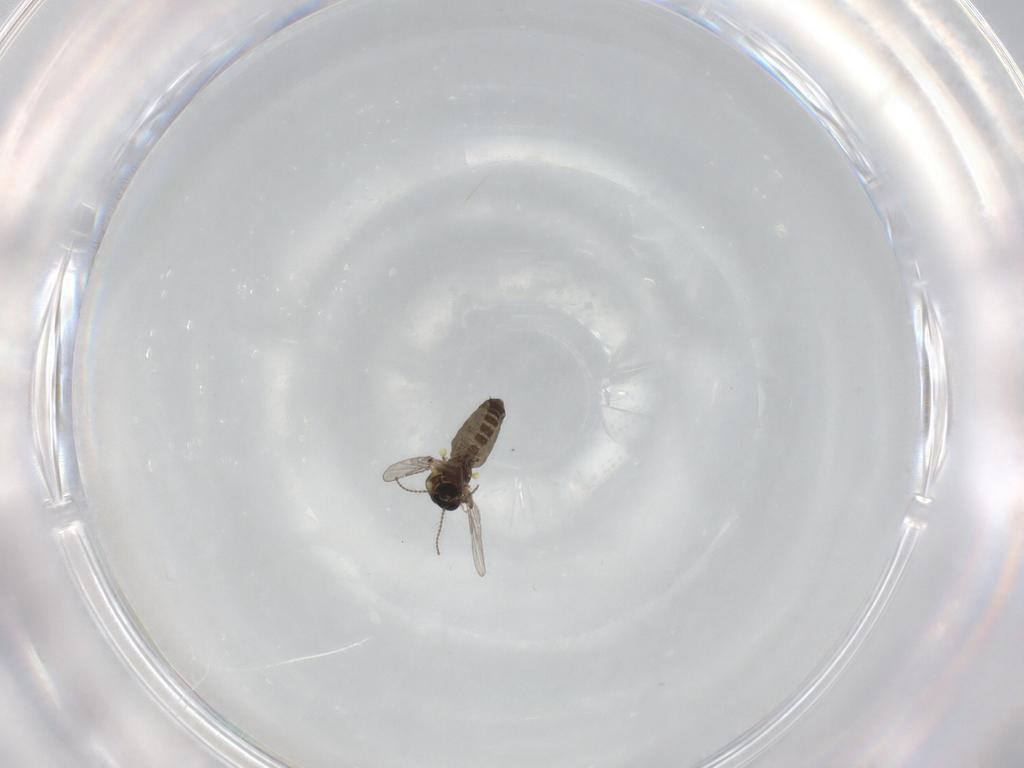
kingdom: Animalia
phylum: Arthropoda
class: Insecta
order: Diptera
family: Ceratopogonidae
